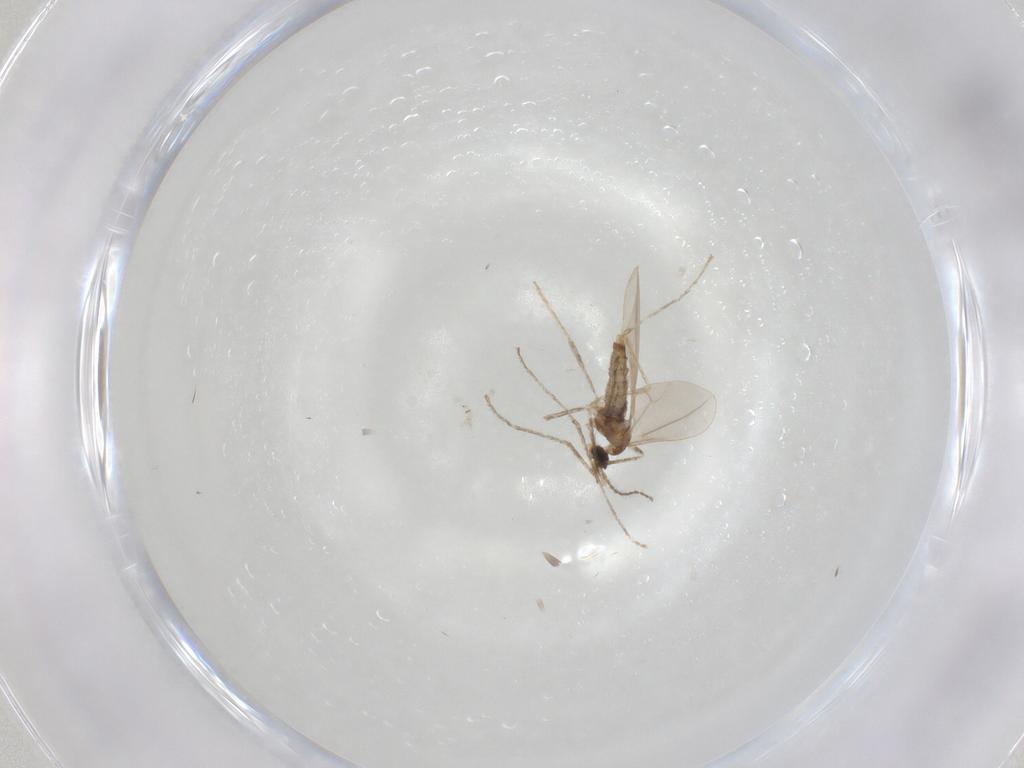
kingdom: Animalia
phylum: Arthropoda
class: Insecta
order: Diptera
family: Cecidomyiidae
